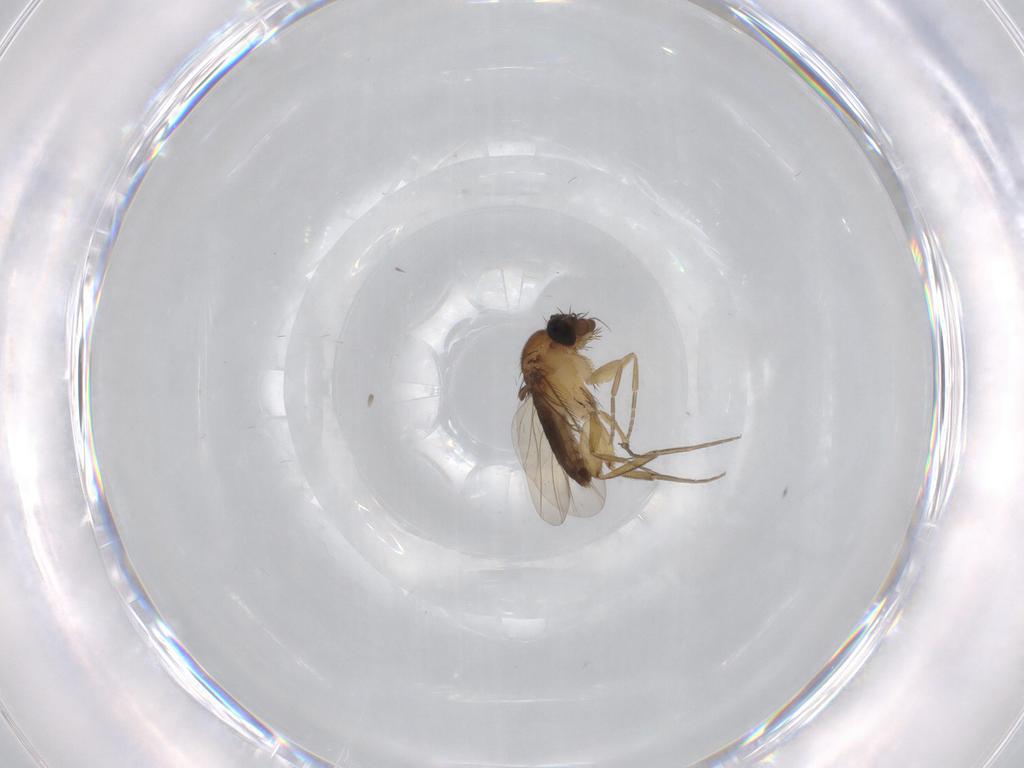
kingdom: Animalia
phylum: Arthropoda
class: Insecta
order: Diptera
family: Phoridae
